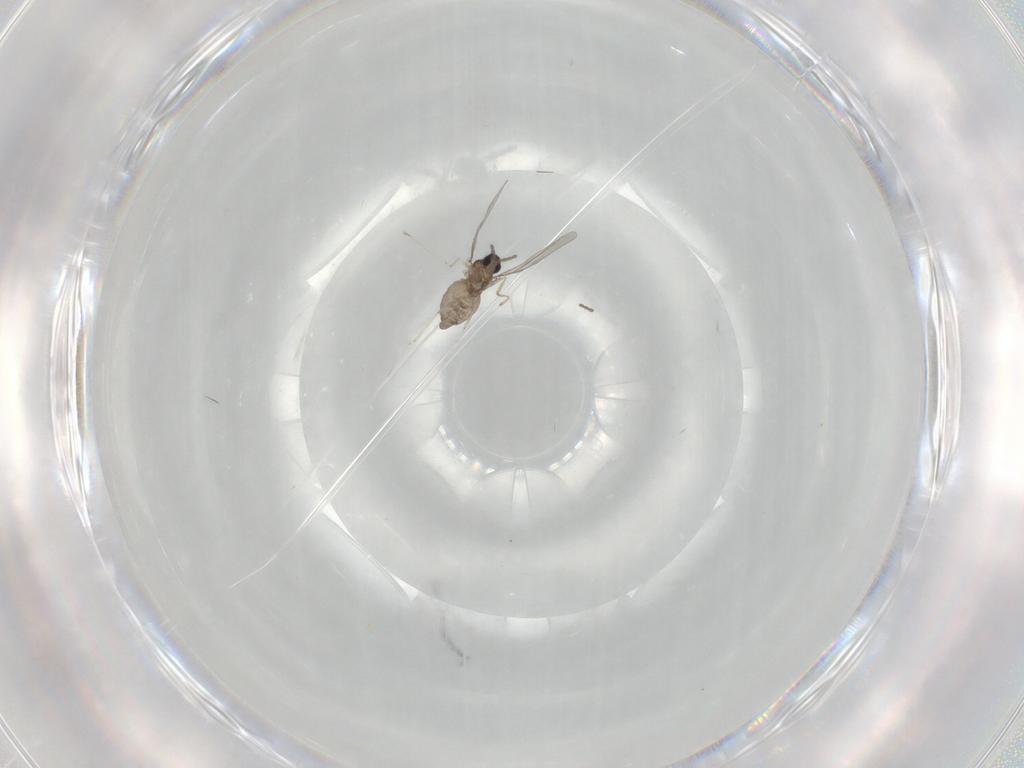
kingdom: Animalia
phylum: Arthropoda
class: Insecta
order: Diptera
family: Cecidomyiidae
